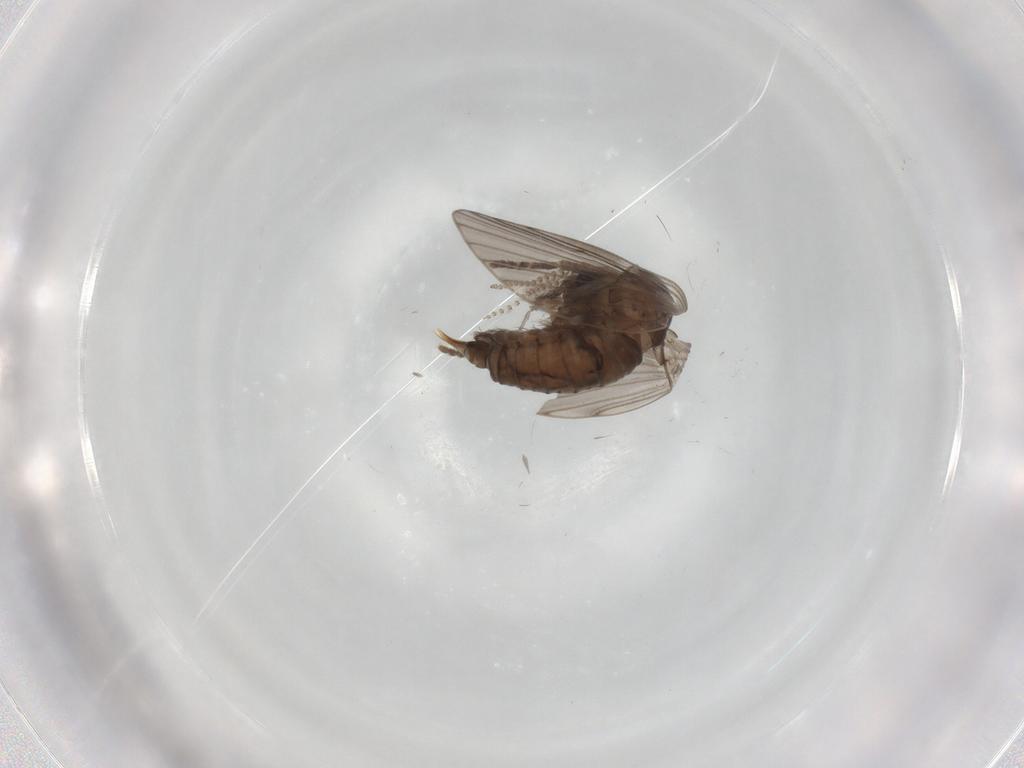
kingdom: Animalia
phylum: Arthropoda
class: Insecta
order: Diptera
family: Psychodidae
